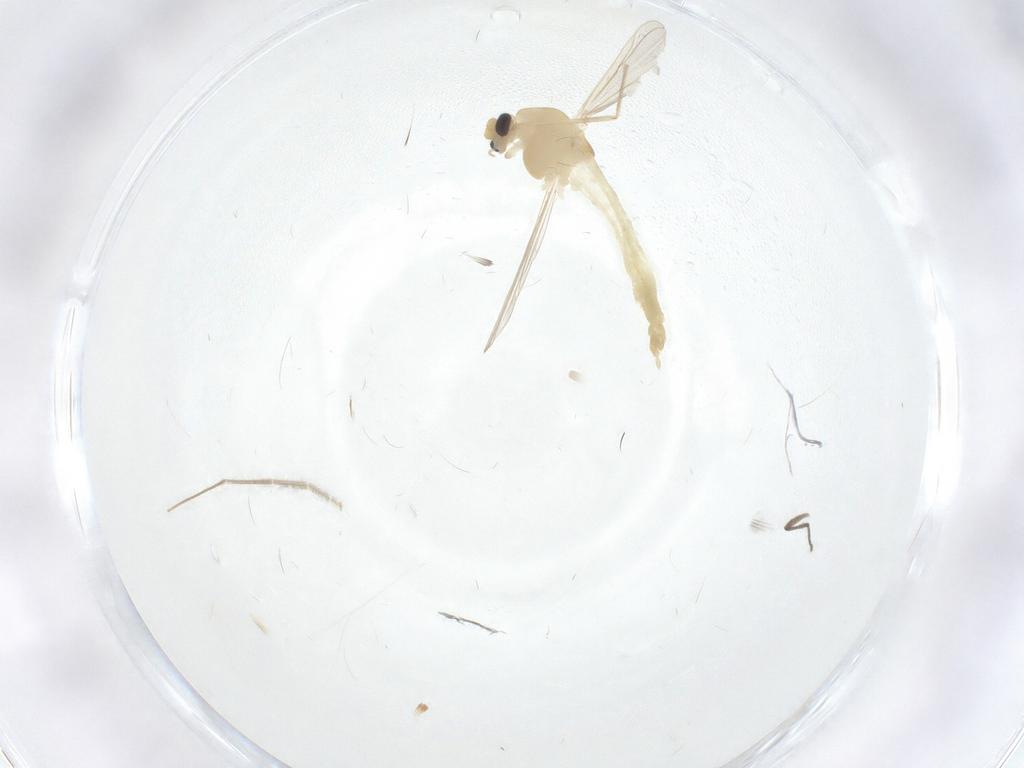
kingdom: Animalia
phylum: Arthropoda
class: Insecta
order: Diptera
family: Chironomidae
